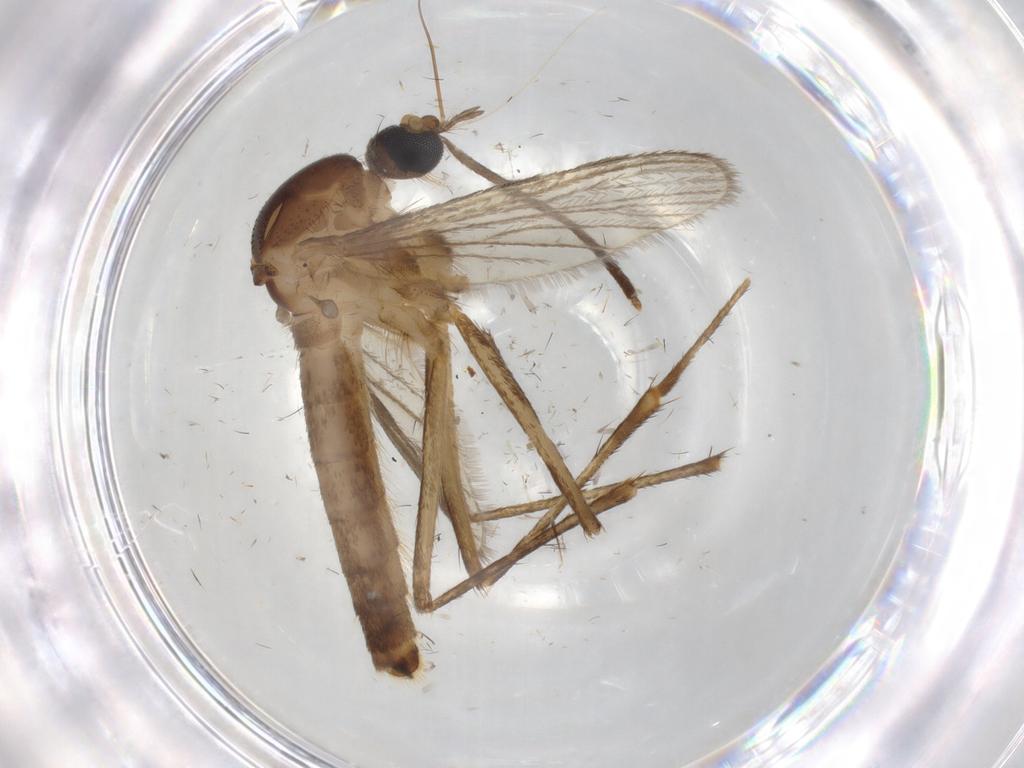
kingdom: Animalia
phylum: Arthropoda
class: Insecta
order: Diptera
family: Drosophilidae
